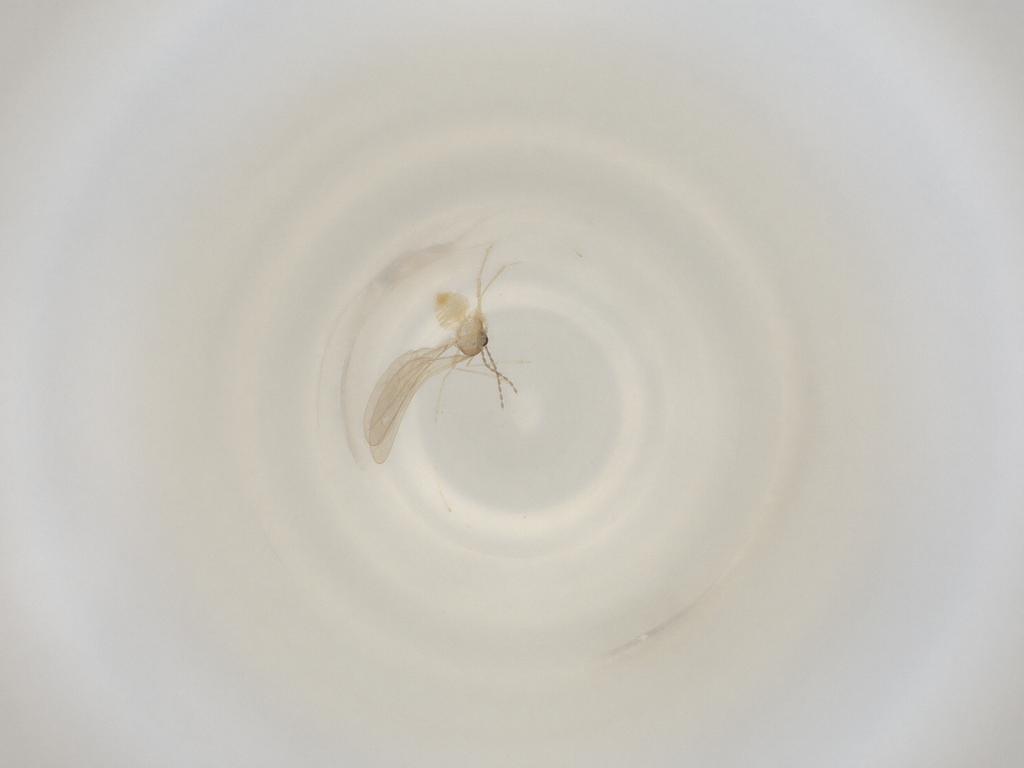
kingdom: Animalia
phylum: Arthropoda
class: Insecta
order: Diptera
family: Cecidomyiidae
